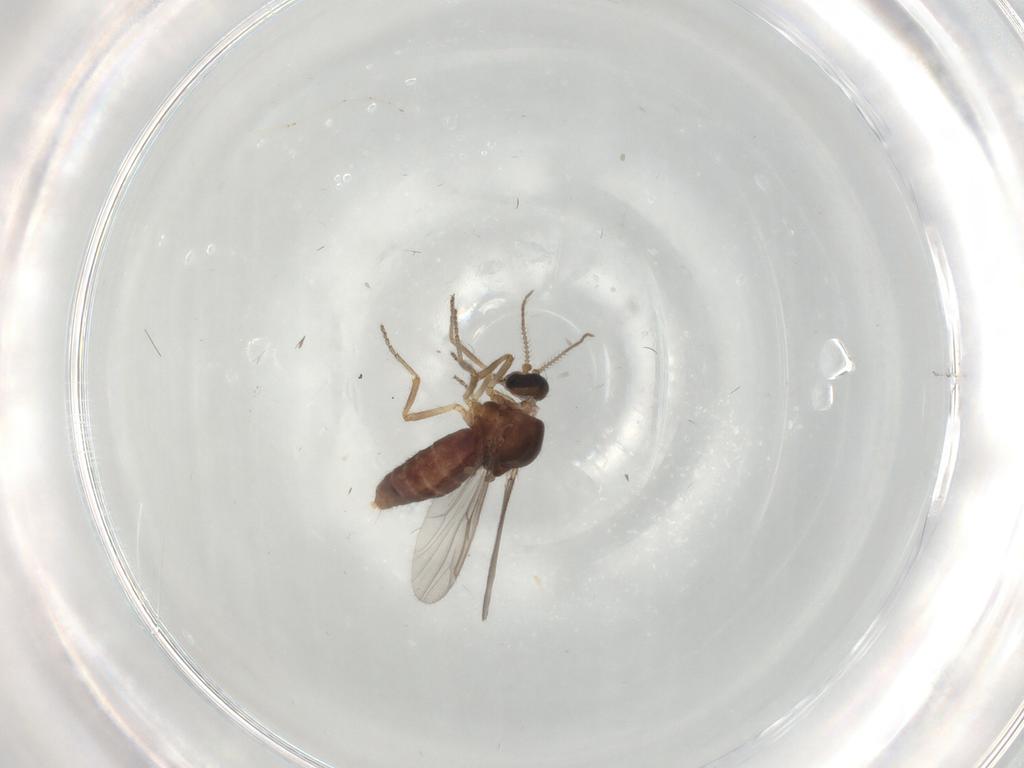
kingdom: Animalia
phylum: Arthropoda
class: Insecta
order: Diptera
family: Ceratopogonidae
